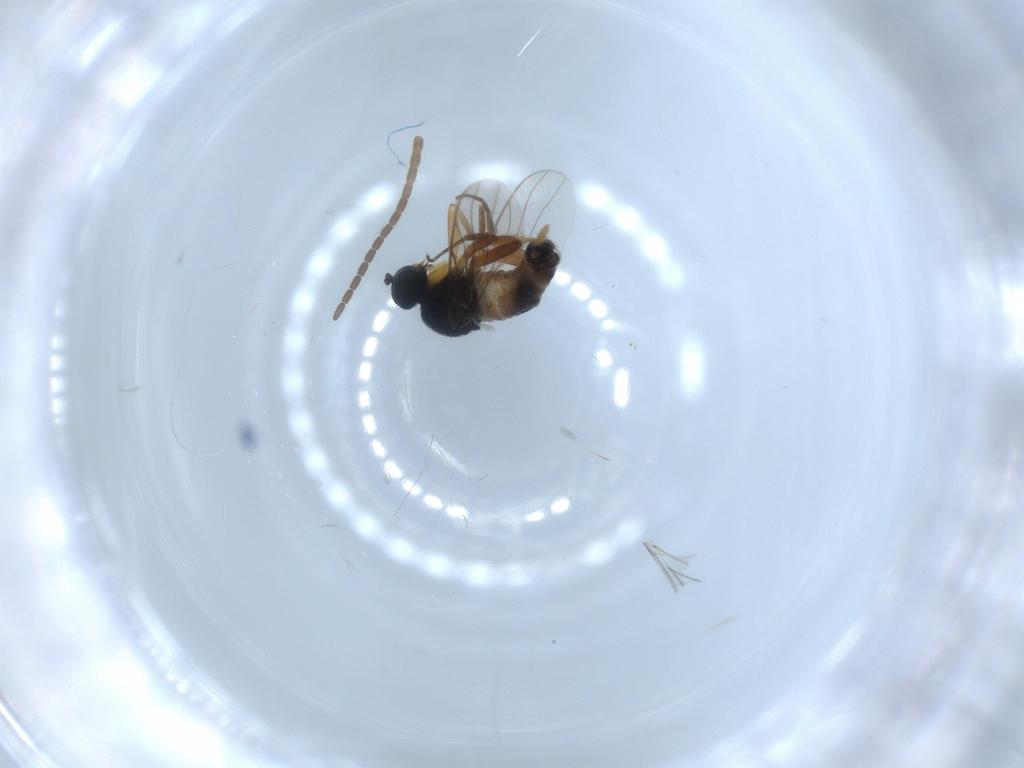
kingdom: Animalia
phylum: Arthropoda
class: Insecta
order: Diptera
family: Hybotidae
